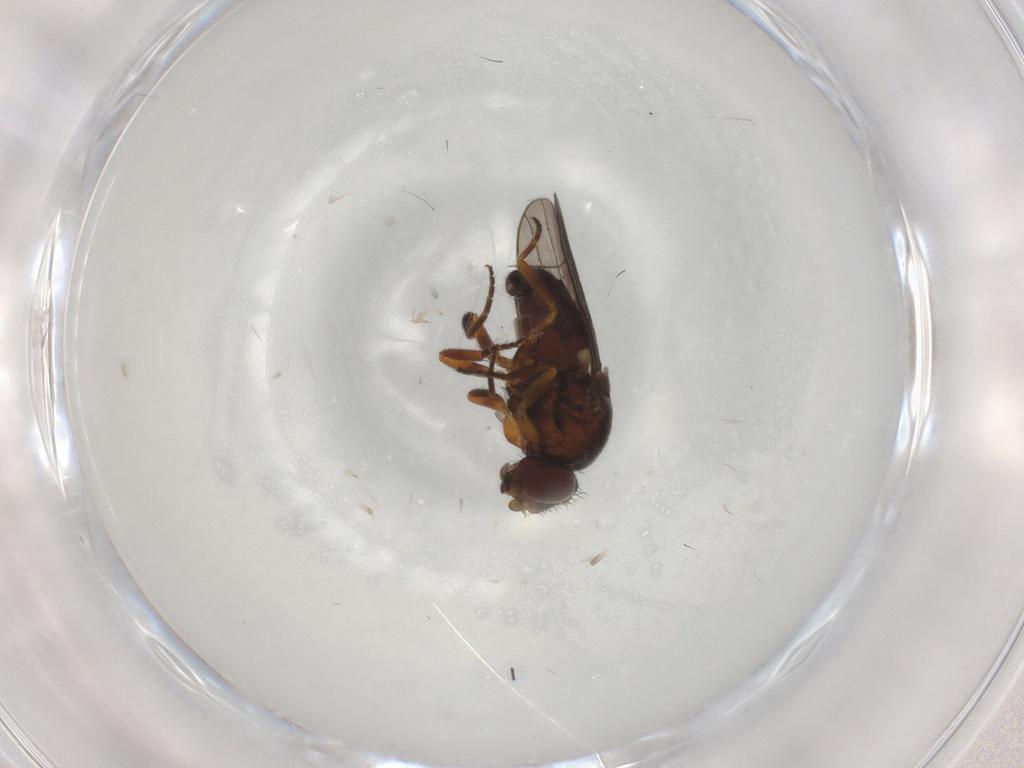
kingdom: Animalia
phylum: Arthropoda
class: Insecta
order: Diptera
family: Chloropidae
